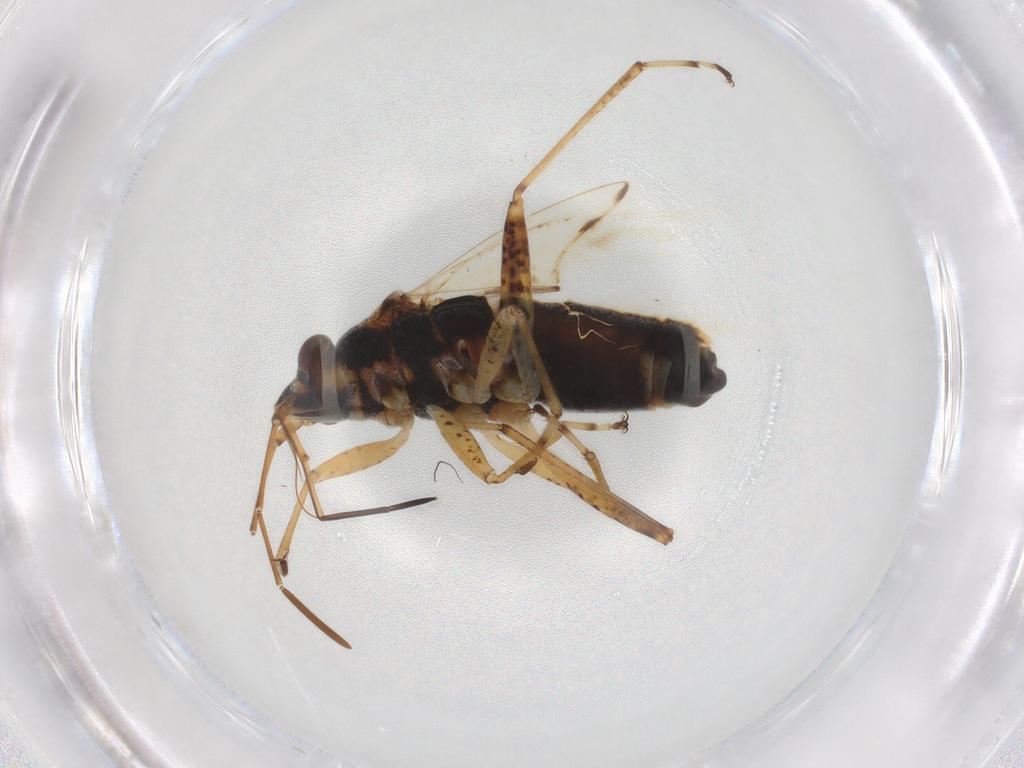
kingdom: Animalia
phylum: Arthropoda
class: Insecta
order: Hemiptera
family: Lygaeidae
